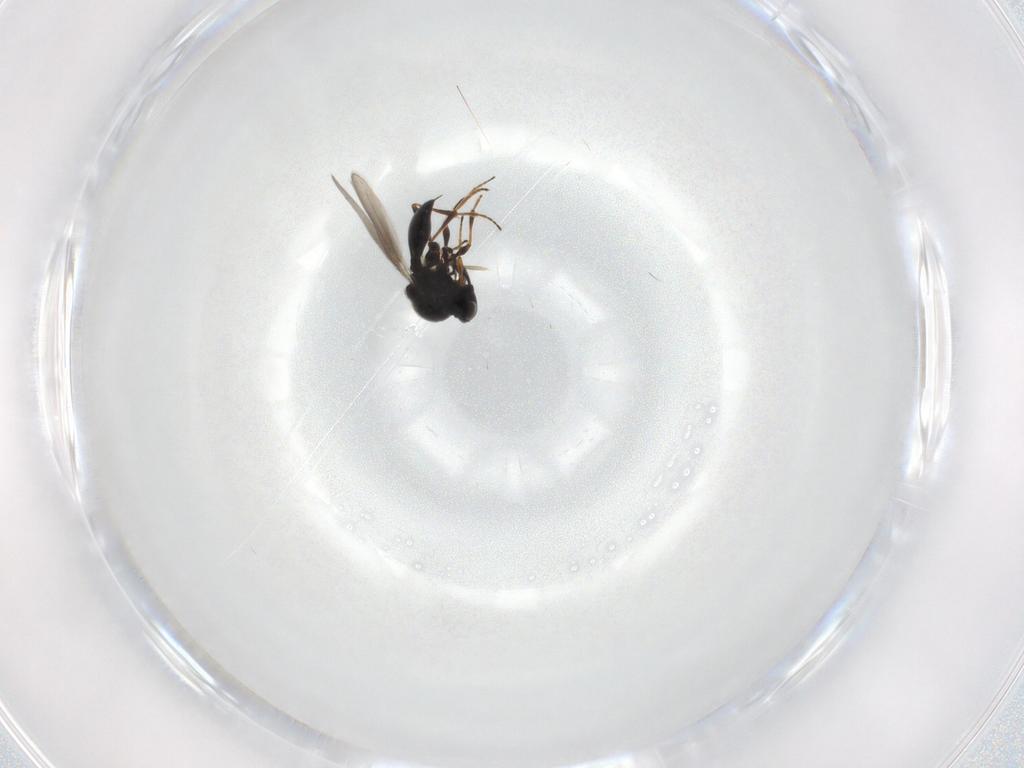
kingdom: Animalia
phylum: Arthropoda
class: Insecta
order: Hymenoptera
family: Platygastridae
